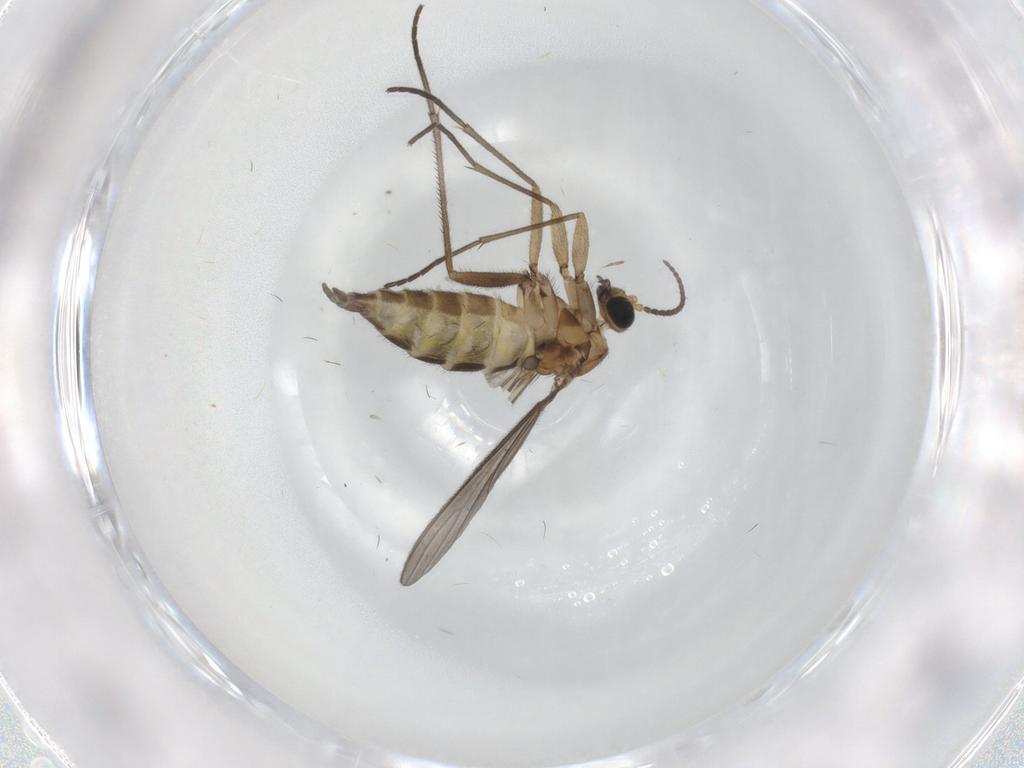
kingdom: Animalia
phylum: Arthropoda
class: Insecta
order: Diptera
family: Sciaridae
